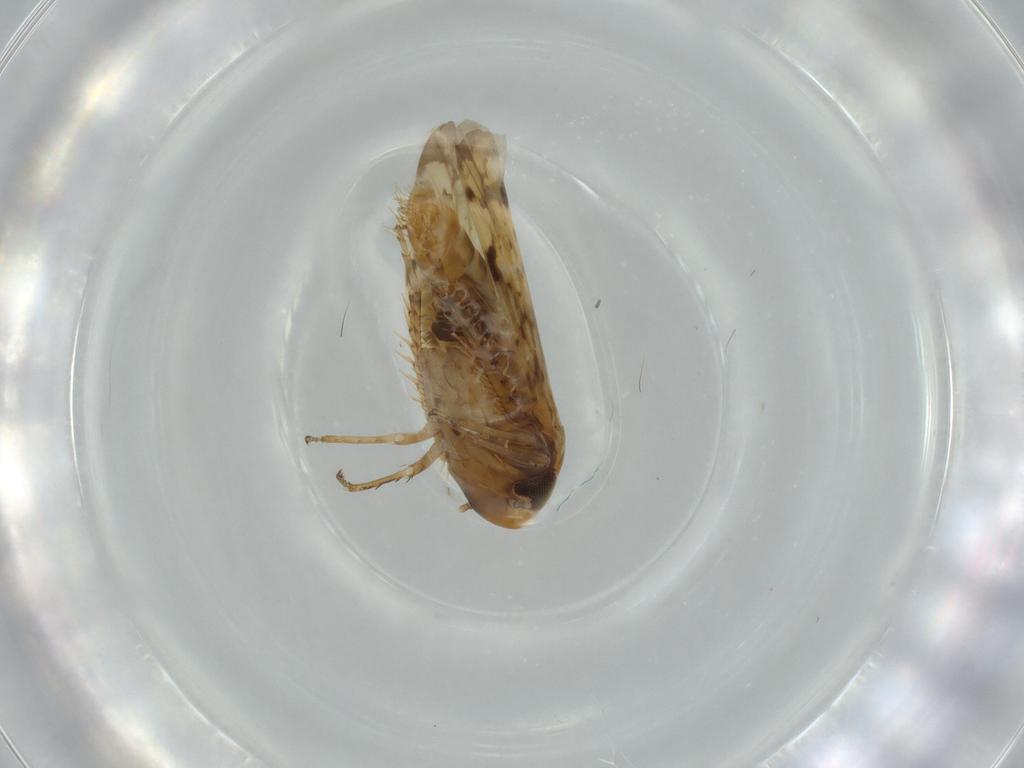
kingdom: Animalia
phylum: Arthropoda
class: Insecta
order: Hemiptera
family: Cicadellidae
